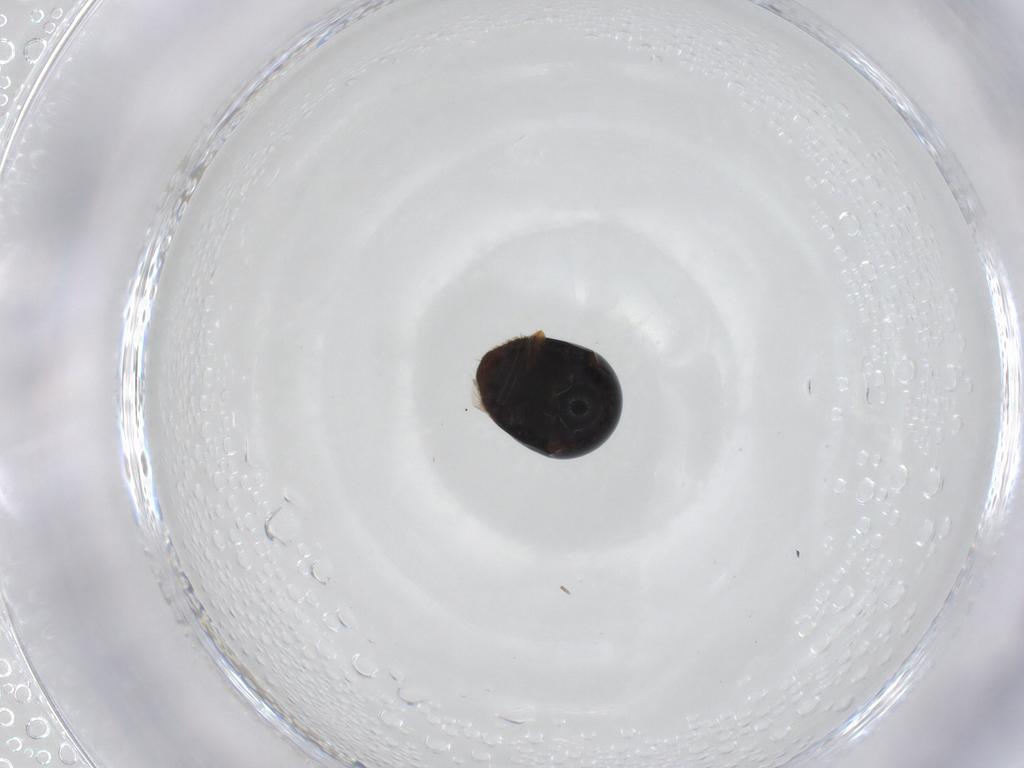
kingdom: Animalia
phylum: Arthropoda
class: Insecta
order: Coleoptera
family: Cybocephalidae
